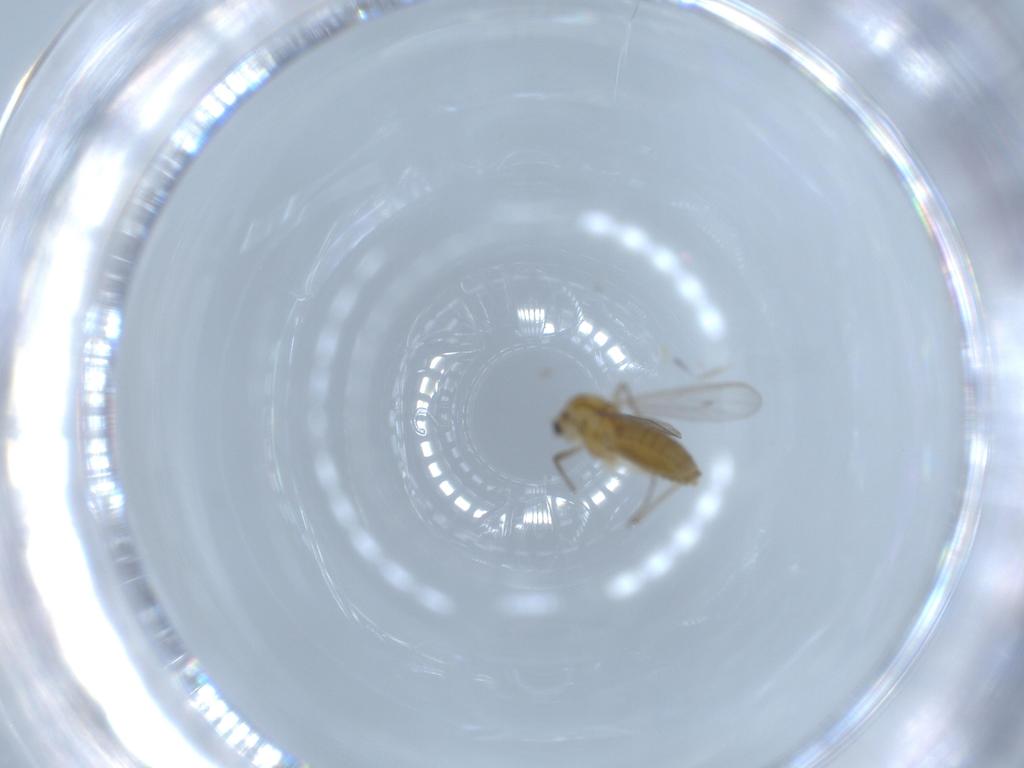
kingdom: Animalia
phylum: Arthropoda
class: Insecta
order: Diptera
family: Chironomidae
